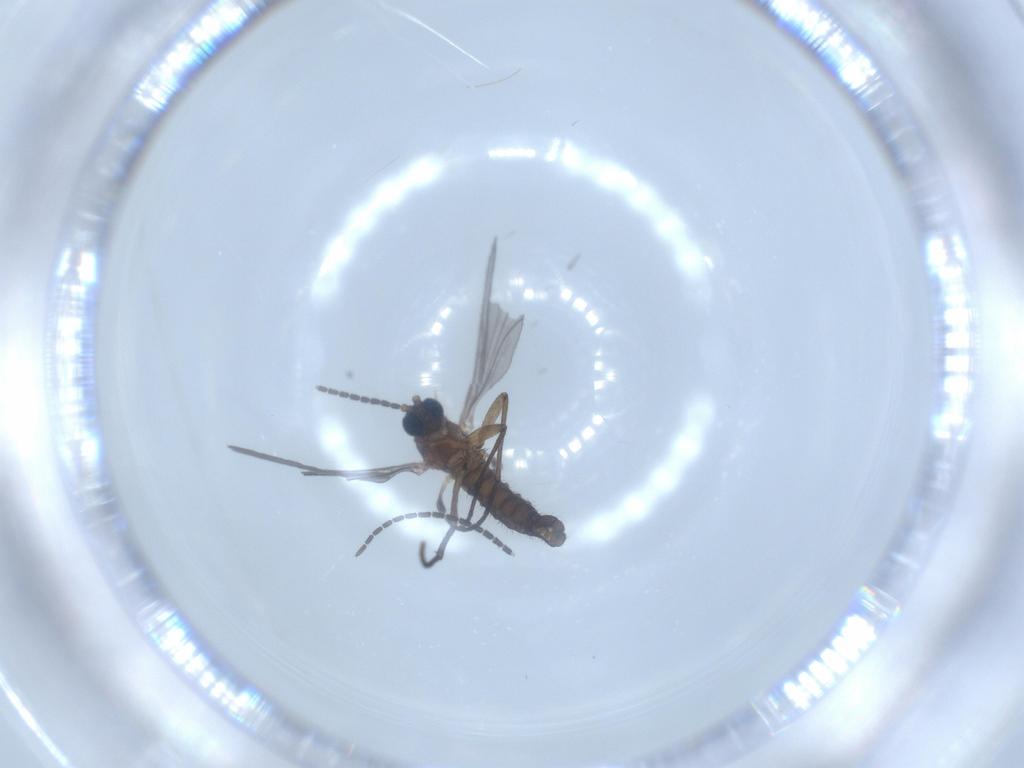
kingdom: Animalia
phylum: Arthropoda
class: Insecta
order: Diptera
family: Sciaridae
